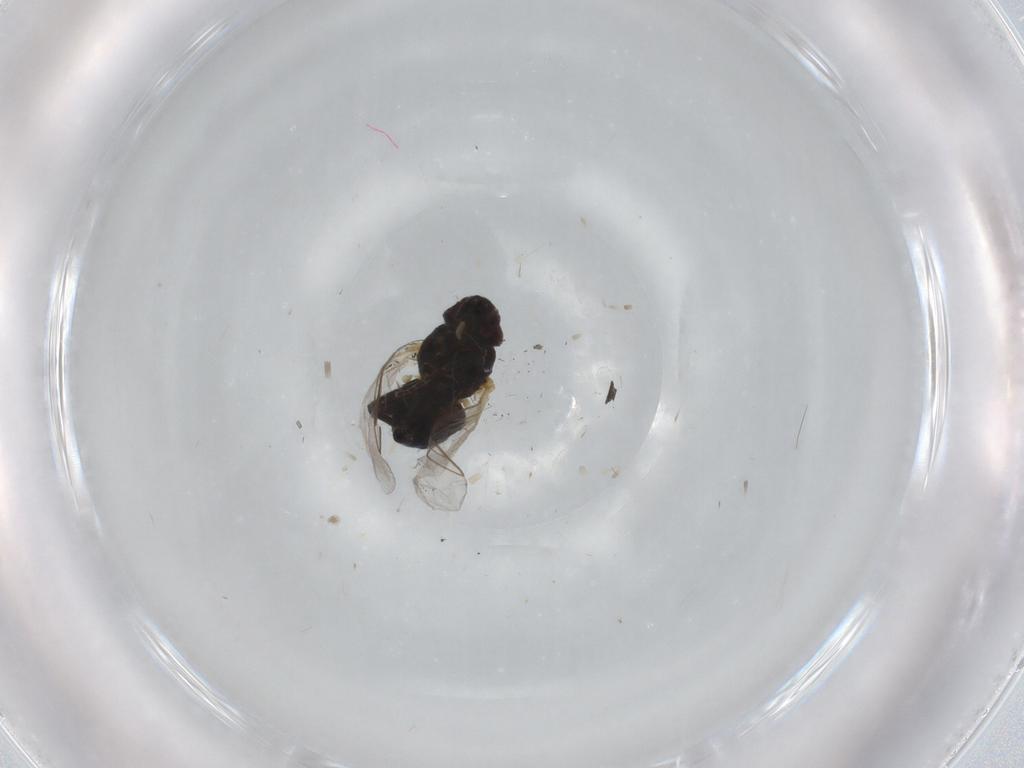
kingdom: Animalia
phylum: Arthropoda
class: Insecta
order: Diptera
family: Agromyzidae
